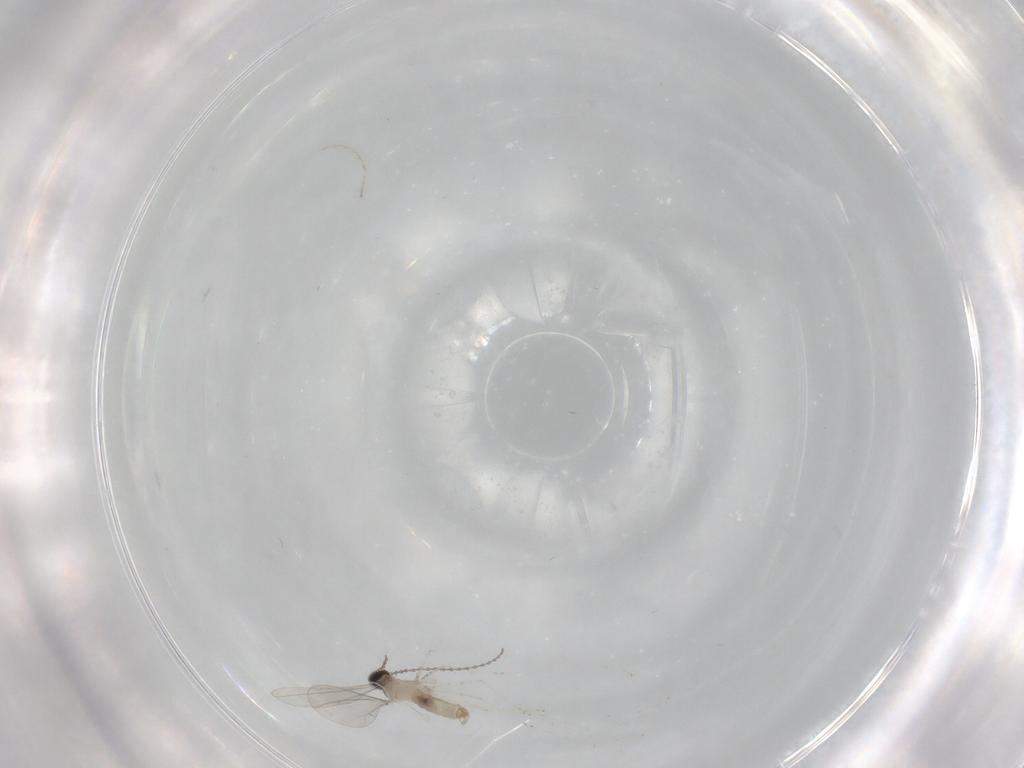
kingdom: Animalia
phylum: Arthropoda
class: Insecta
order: Diptera
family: Cecidomyiidae
